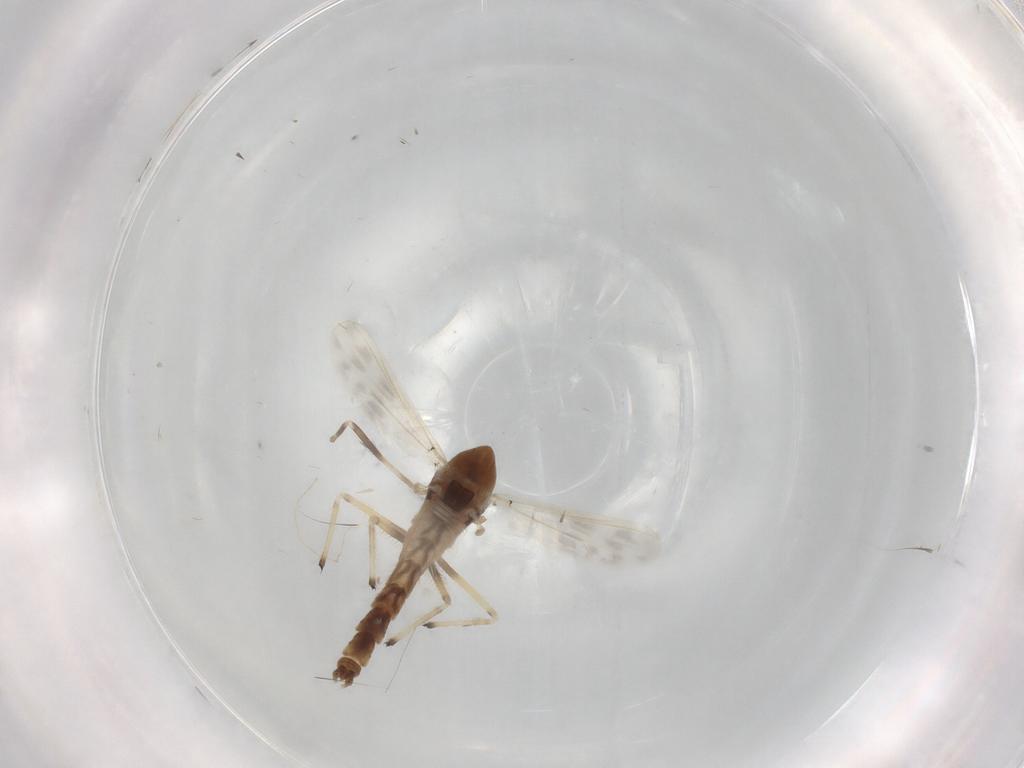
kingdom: Animalia
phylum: Arthropoda
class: Insecta
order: Diptera
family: Chironomidae
